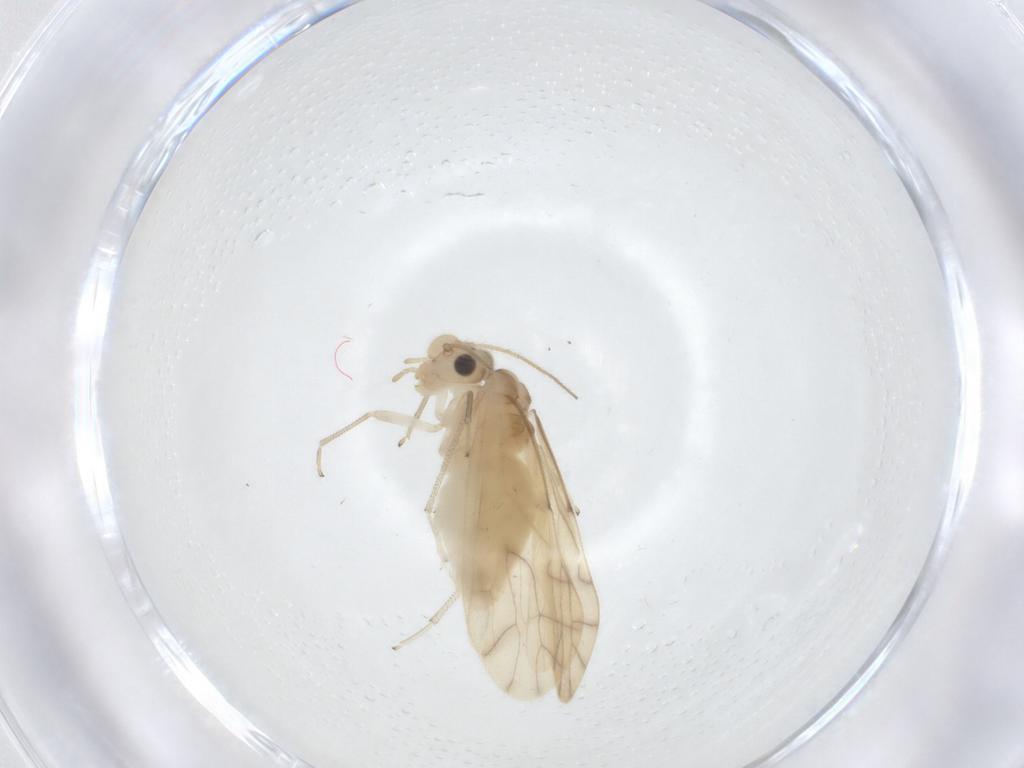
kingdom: Animalia
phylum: Arthropoda
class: Insecta
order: Psocodea
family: Caeciliusidae
